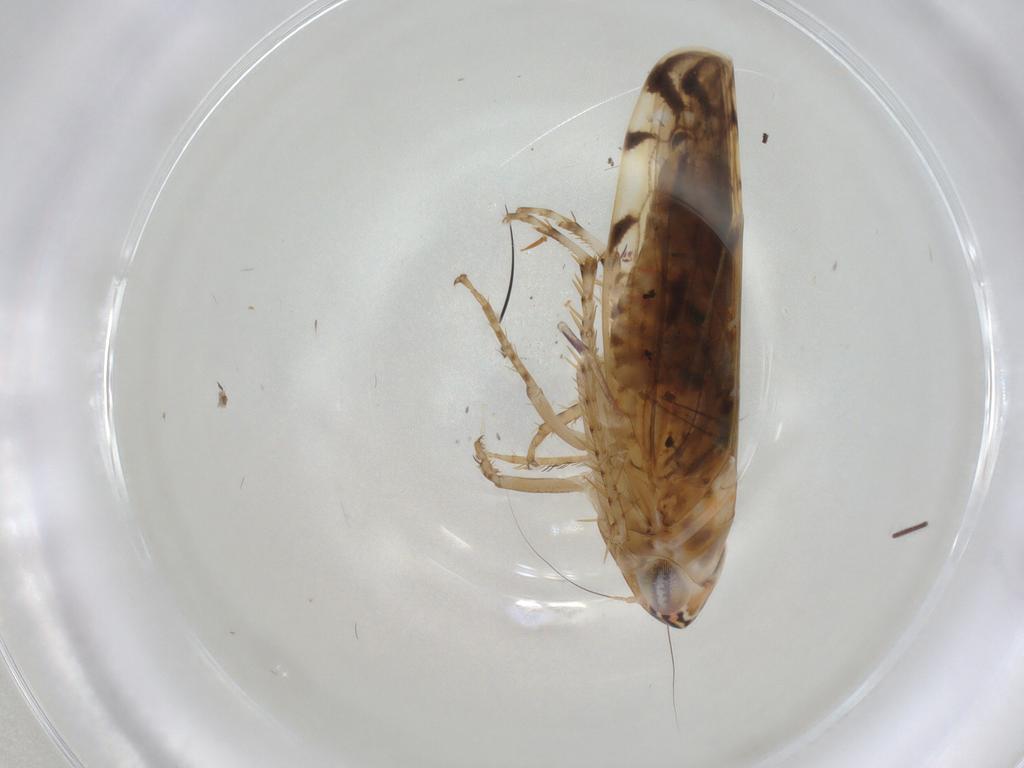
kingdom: Animalia
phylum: Arthropoda
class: Insecta
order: Hemiptera
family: Cicadellidae
